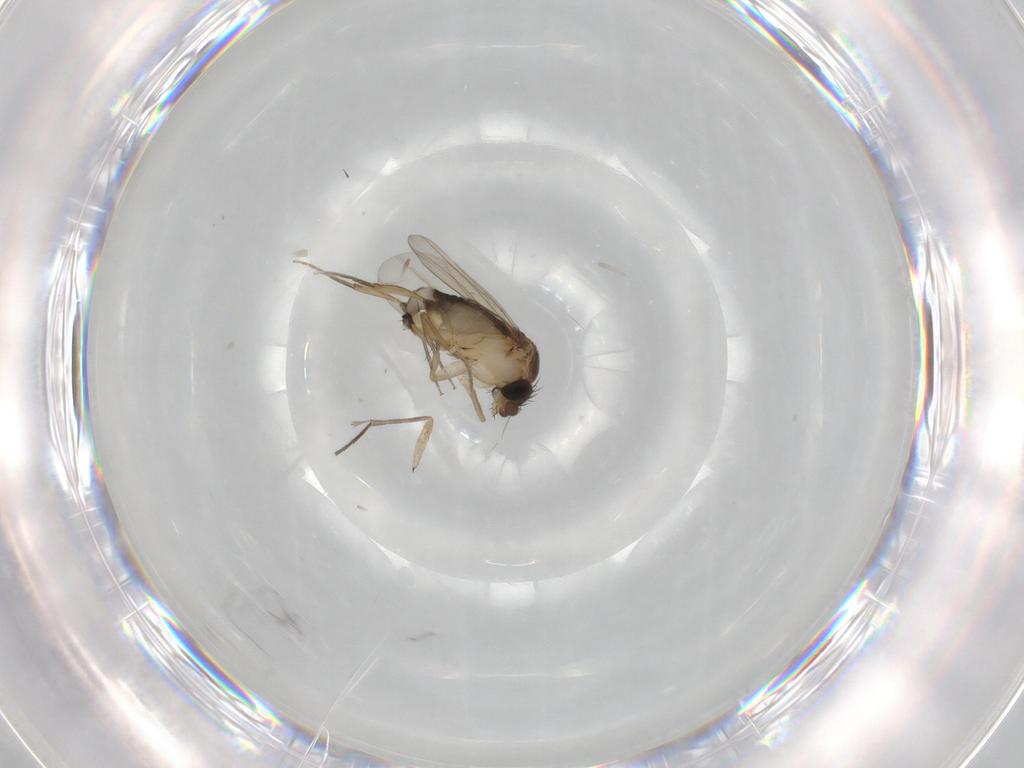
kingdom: Animalia
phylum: Arthropoda
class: Insecta
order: Diptera
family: Phoridae
